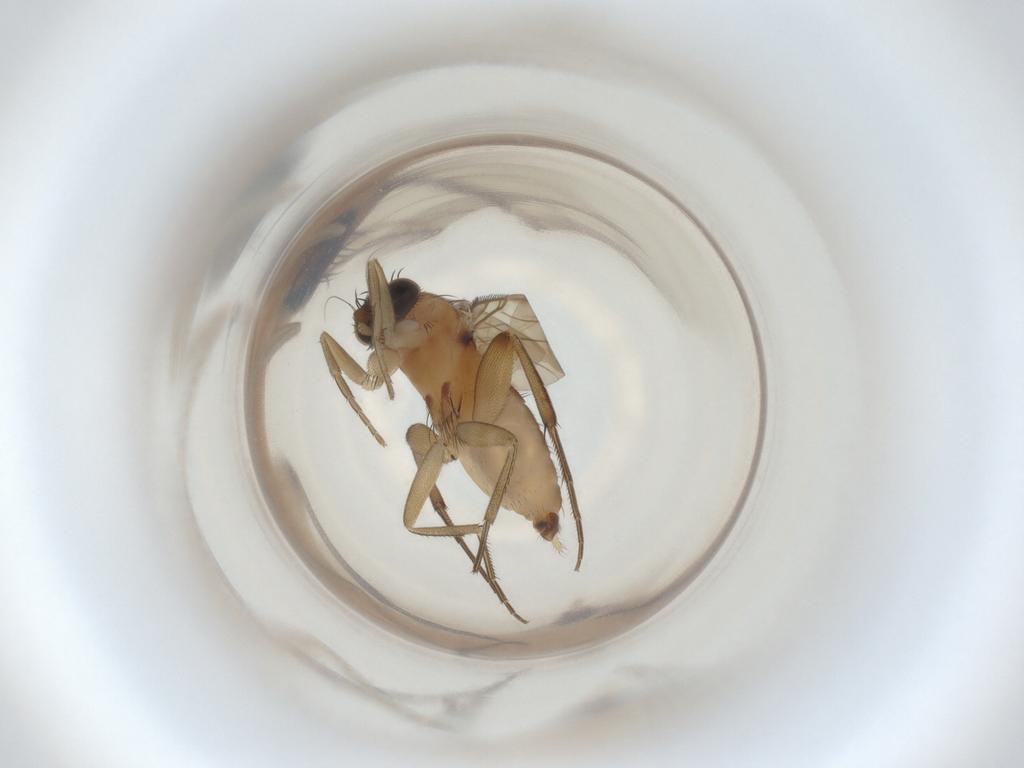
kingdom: Animalia
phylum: Arthropoda
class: Insecta
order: Diptera
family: Phoridae
